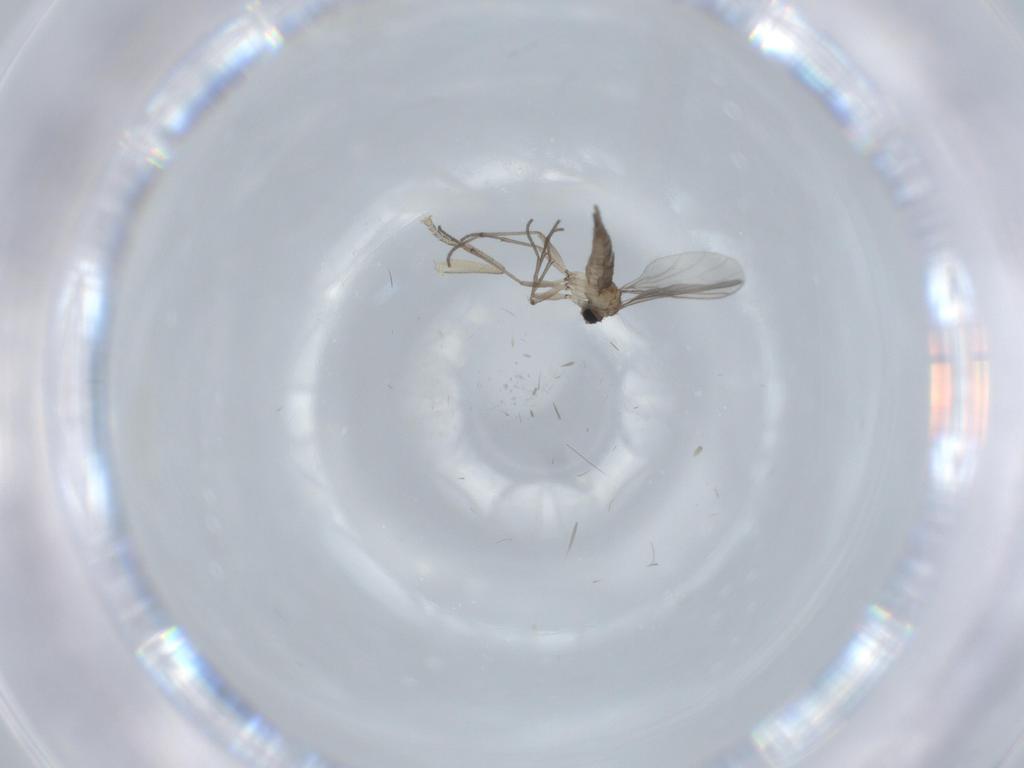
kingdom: Animalia
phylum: Arthropoda
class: Insecta
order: Diptera
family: Sciaridae
